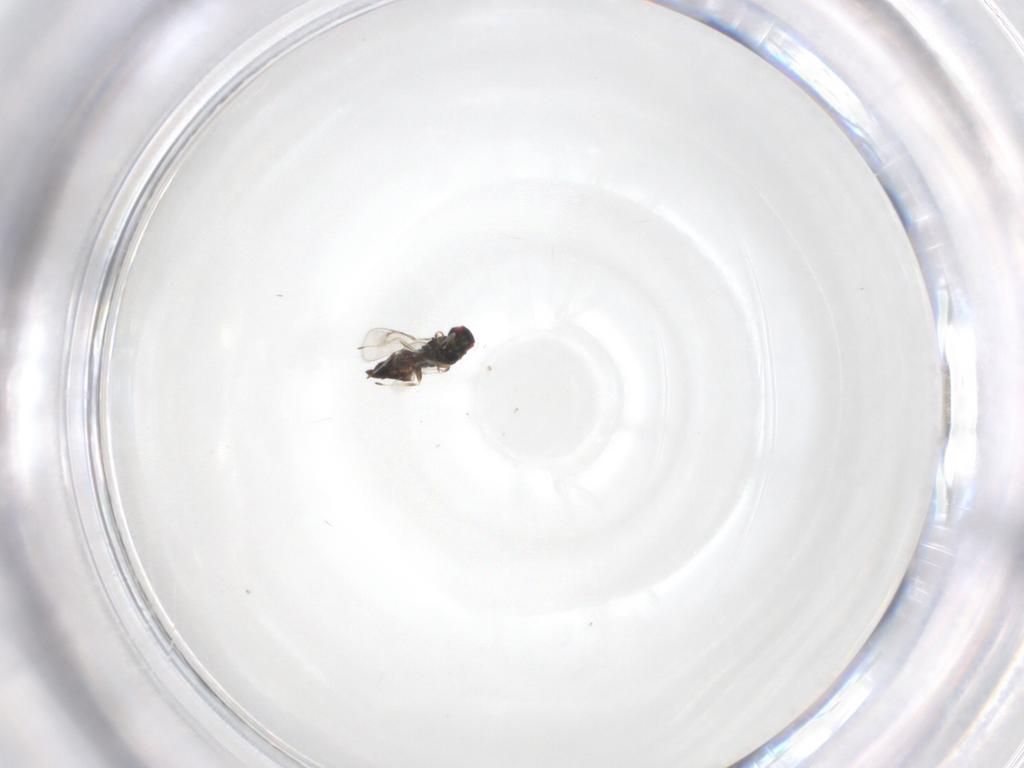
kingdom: Animalia
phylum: Arthropoda
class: Insecta
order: Hymenoptera
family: Eulophidae
